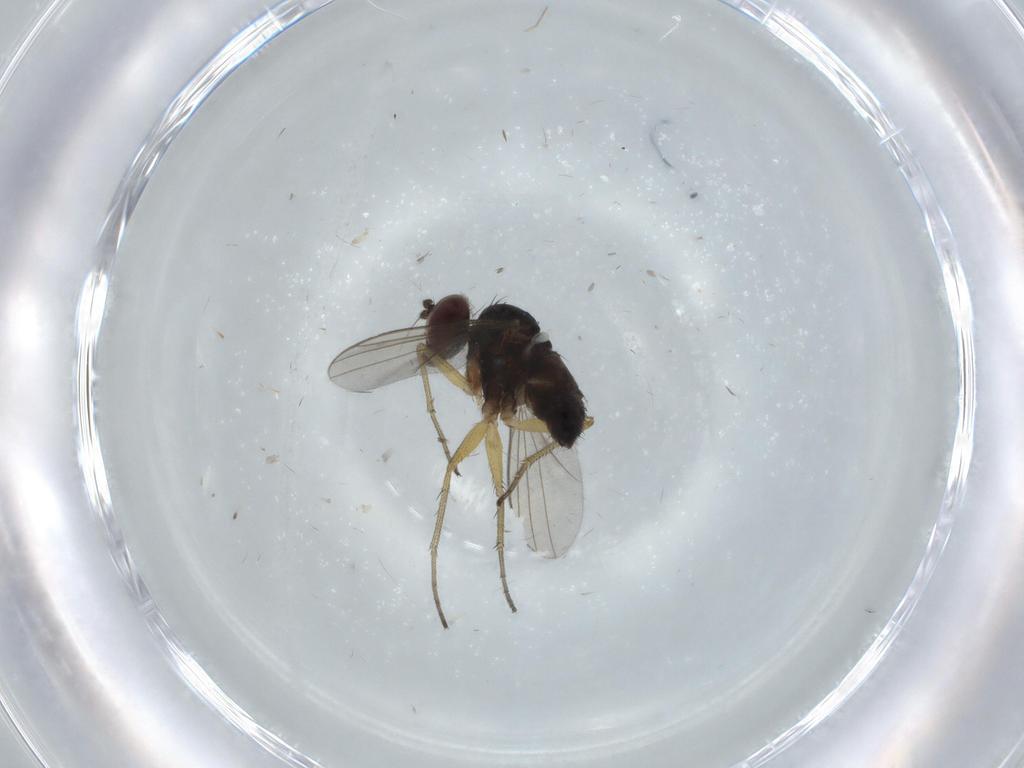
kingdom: Animalia
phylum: Arthropoda
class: Insecta
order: Diptera
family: Dolichopodidae
